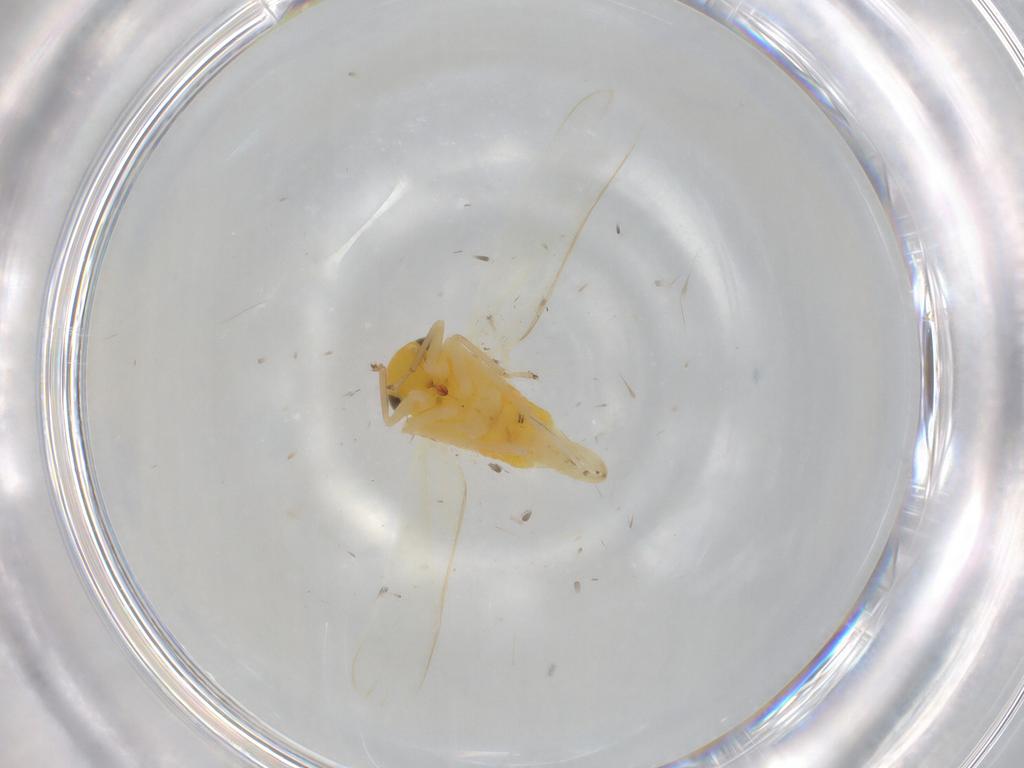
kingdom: Animalia
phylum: Arthropoda
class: Insecta
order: Hemiptera
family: Cicadellidae
